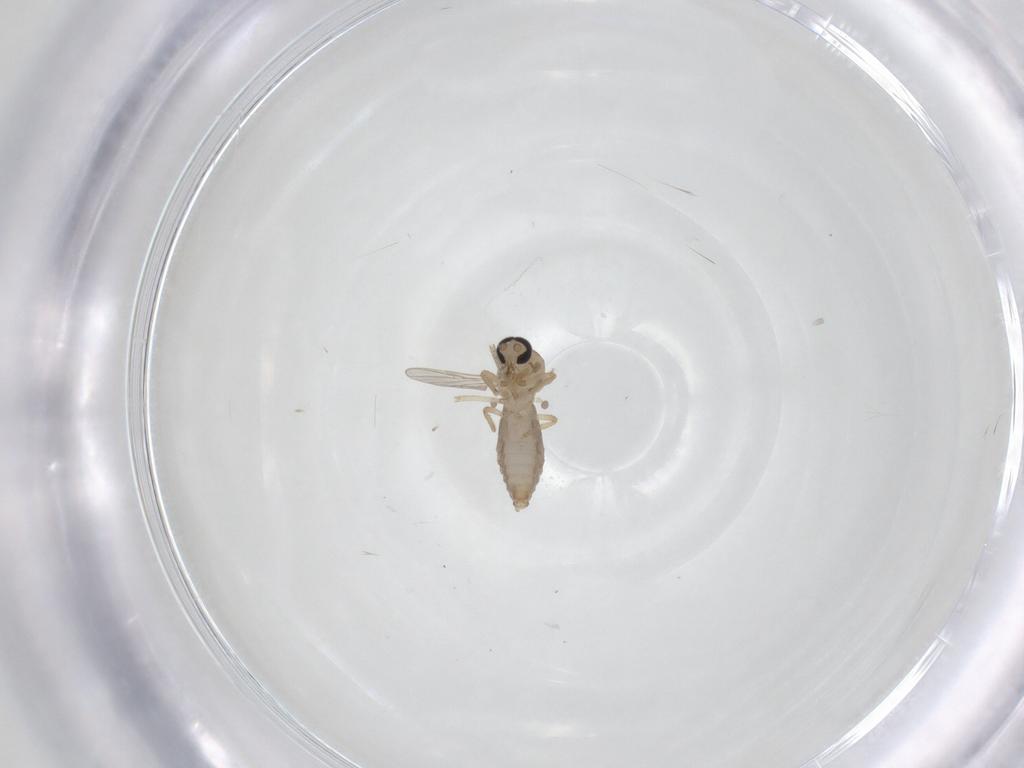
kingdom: Animalia
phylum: Arthropoda
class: Insecta
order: Diptera
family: Ceratopogonidae
